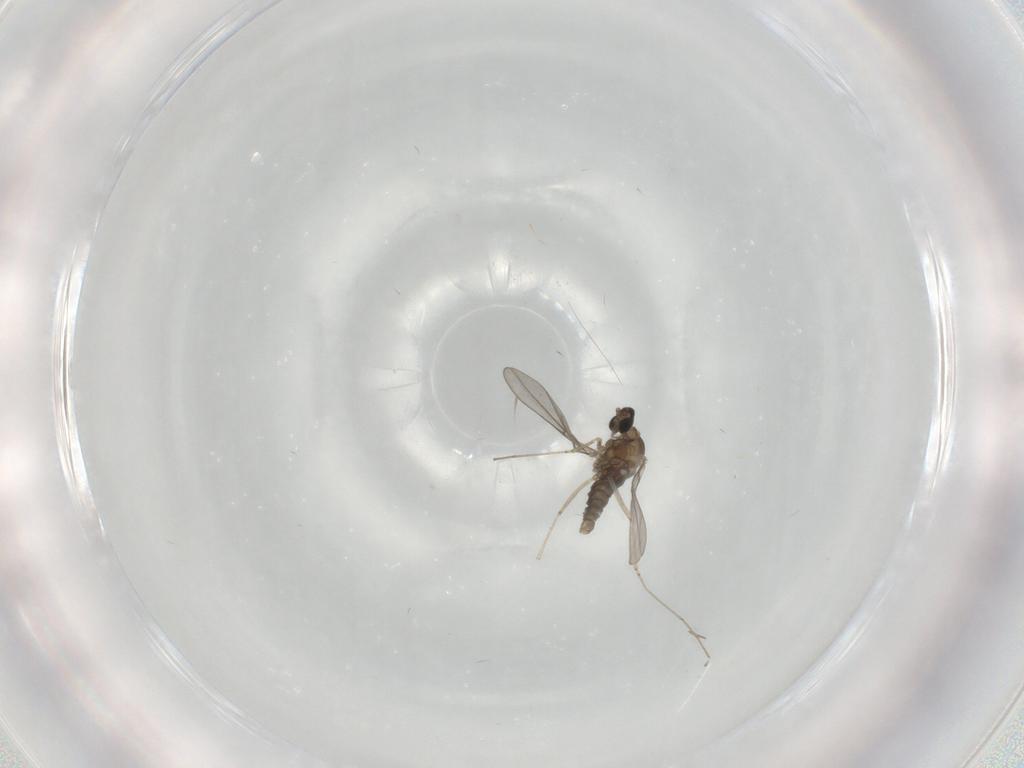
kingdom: Animalia
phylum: Arthropoda
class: Insecta
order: Diptera
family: Cecidomyiidae
